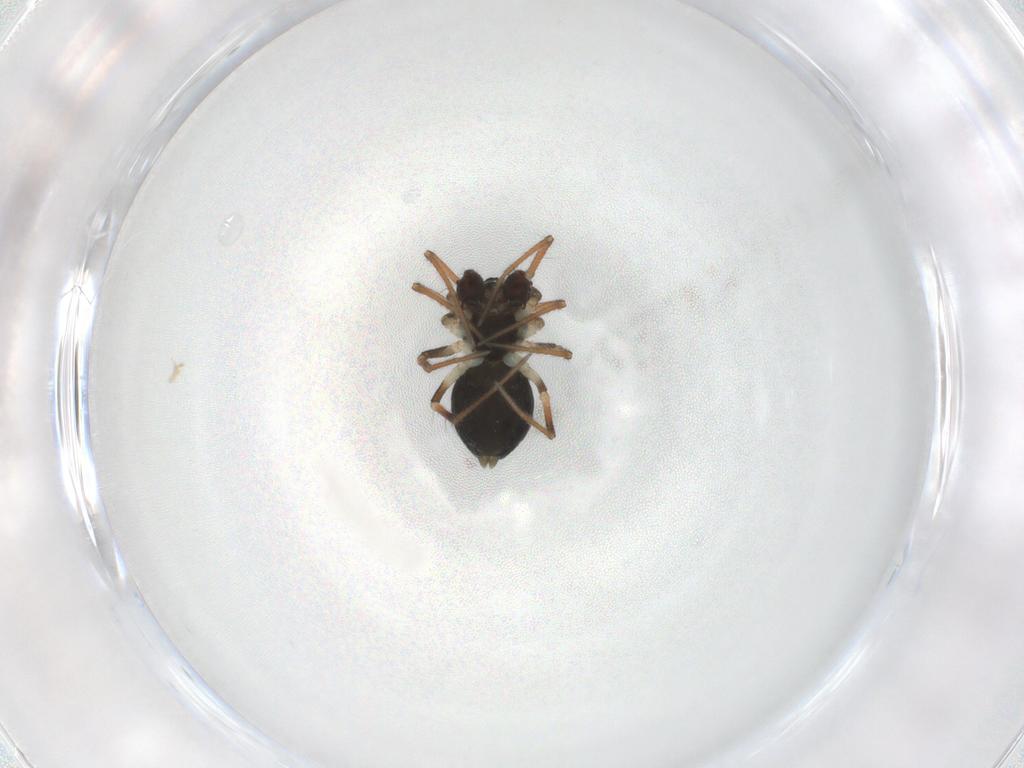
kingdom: Animalia
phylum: Arthropoda
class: Arachnida
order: Araneae
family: Linyphiidae
